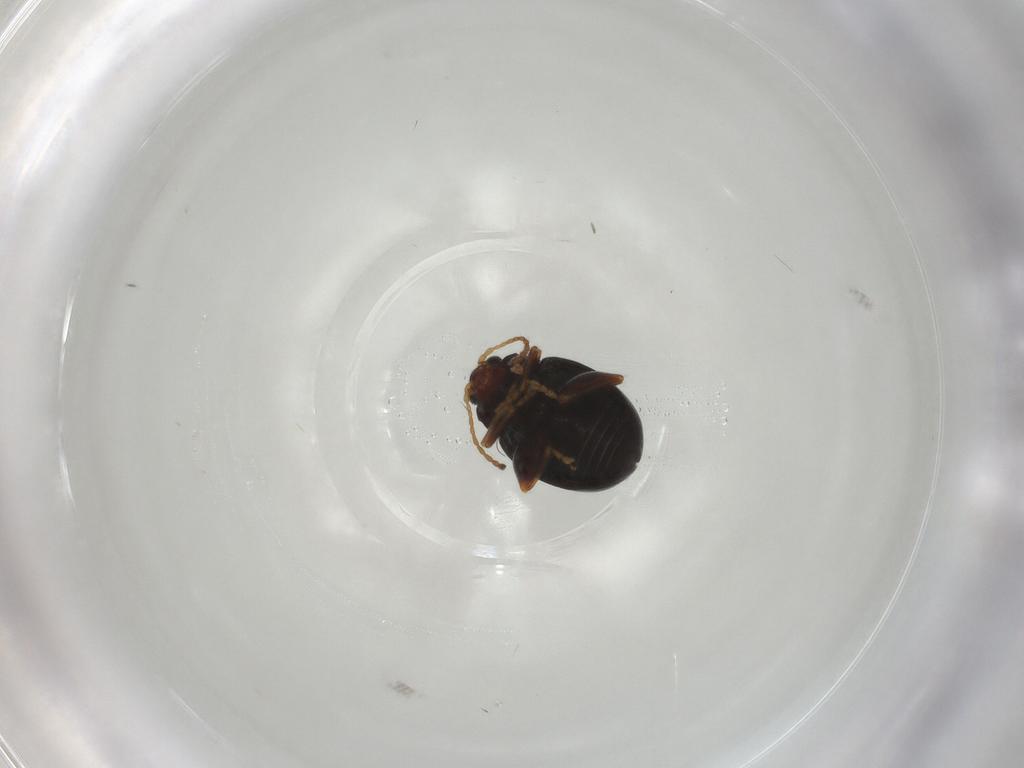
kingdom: Animalia
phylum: Arthropoda
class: Insecta
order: Coleoptera
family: Chrysomelidae
